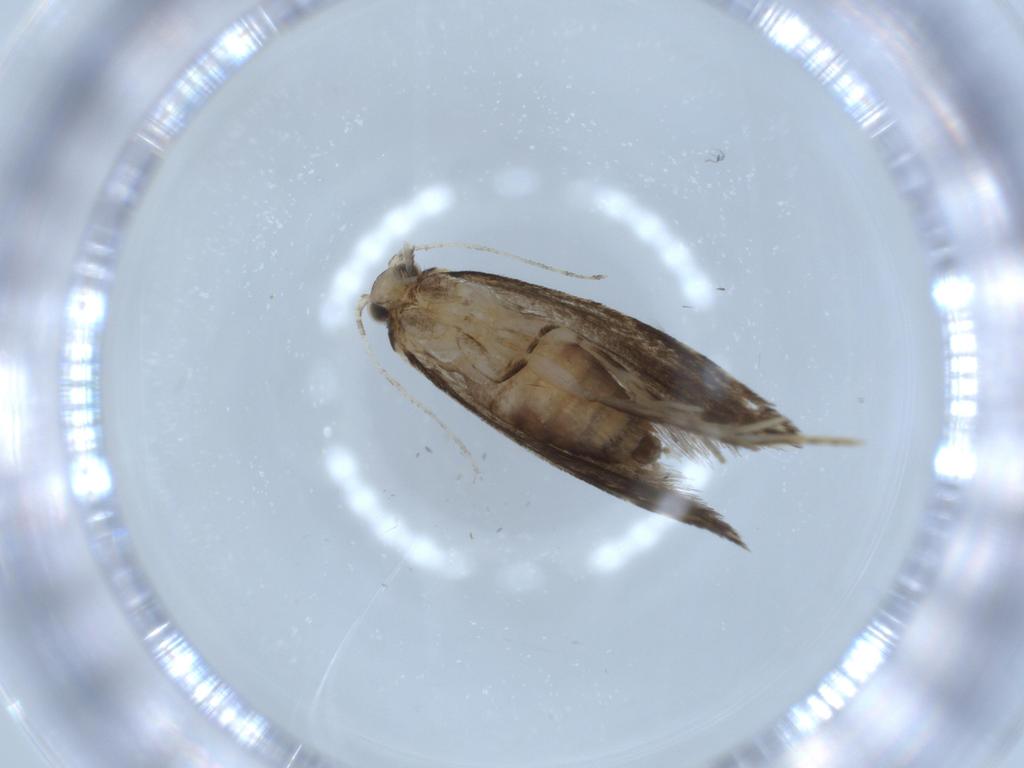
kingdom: Animalia
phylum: Arthropoda
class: Insecta
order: Lepidoptera
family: Tineidae
